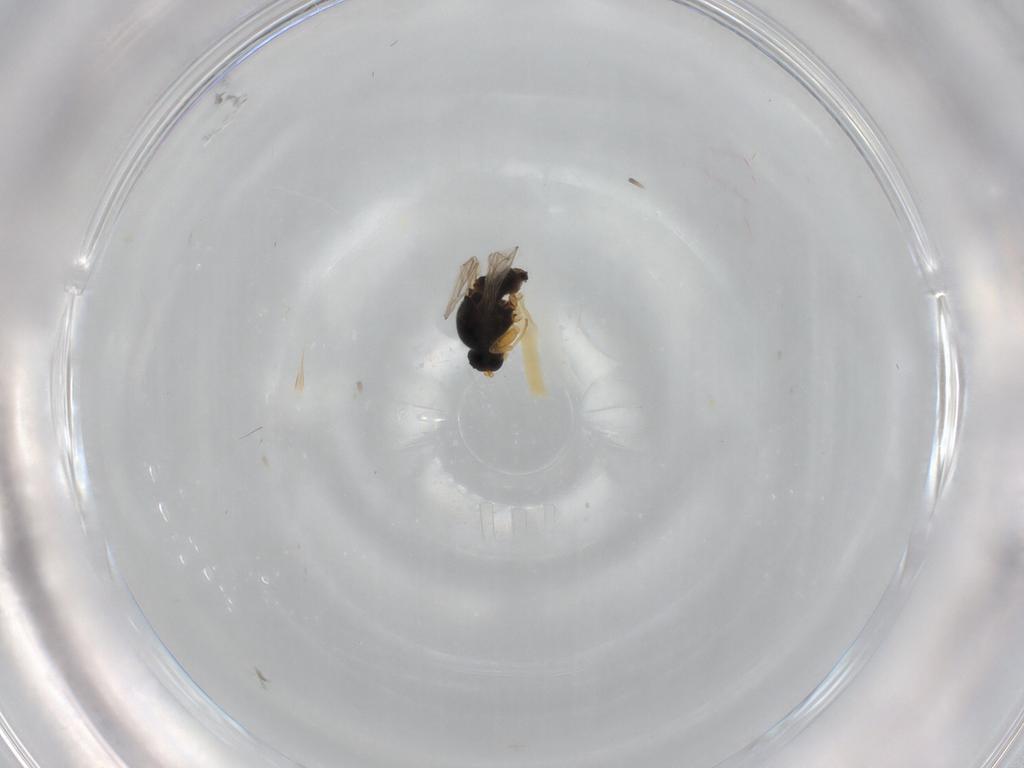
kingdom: Animalia
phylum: Arthropoda
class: Insecta
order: Diptera
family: Cecidomyiidae
